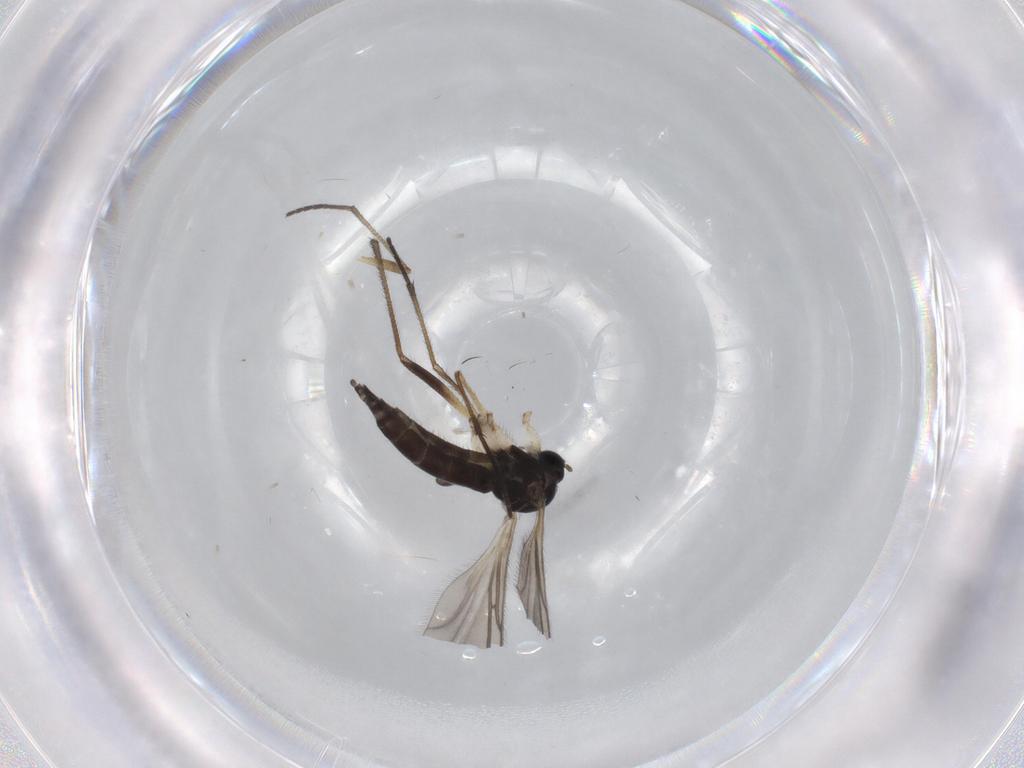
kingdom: Animalia
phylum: Arthropoda
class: Insecta
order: Diptera
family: Sciaridae
